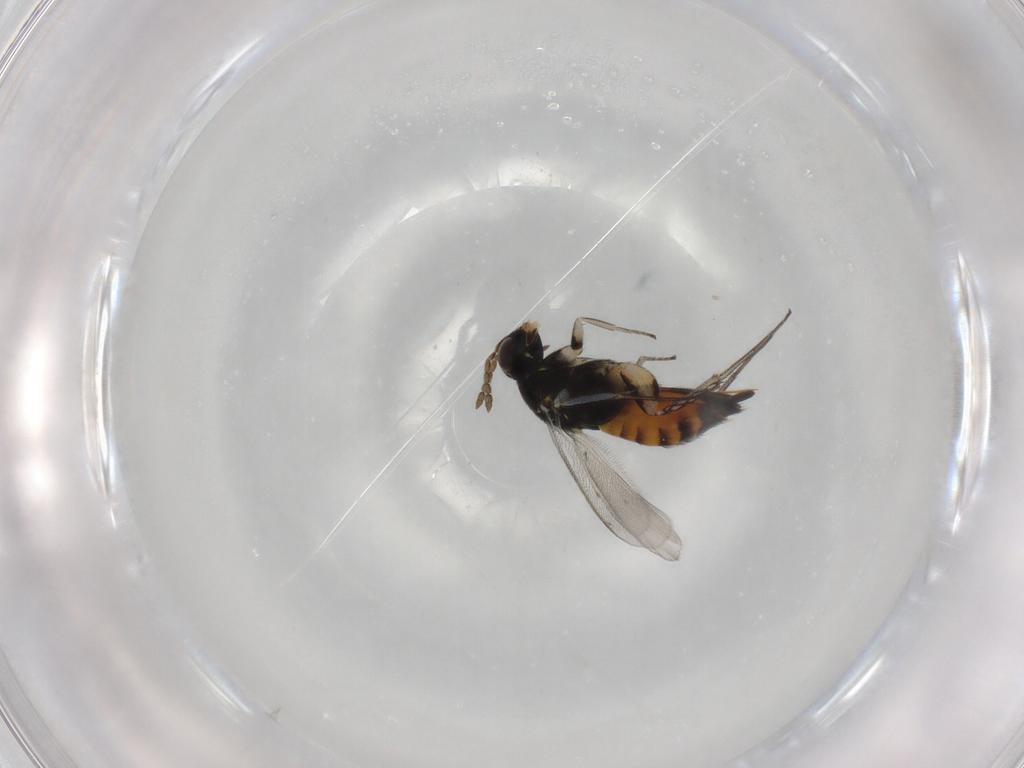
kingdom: Animalia
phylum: Arthropoda
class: Insecta
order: Hymenoptera
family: Eulophidae
